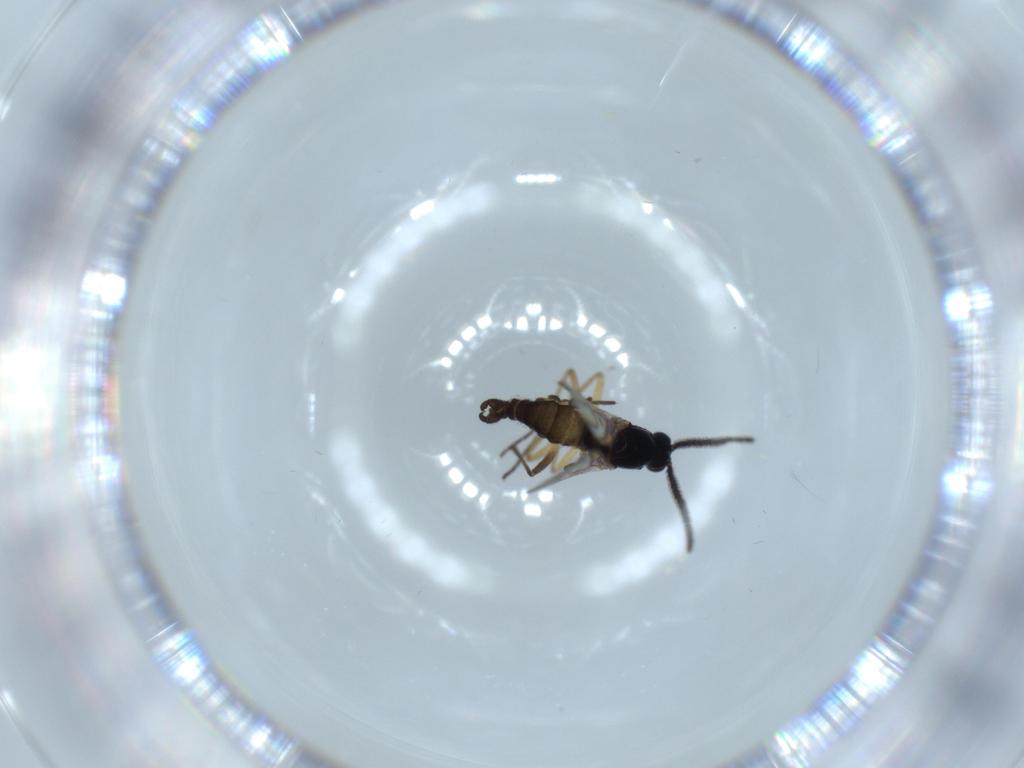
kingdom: Animalia
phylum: Arthropoda
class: Insecta
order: Diptera
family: Sciaridae
